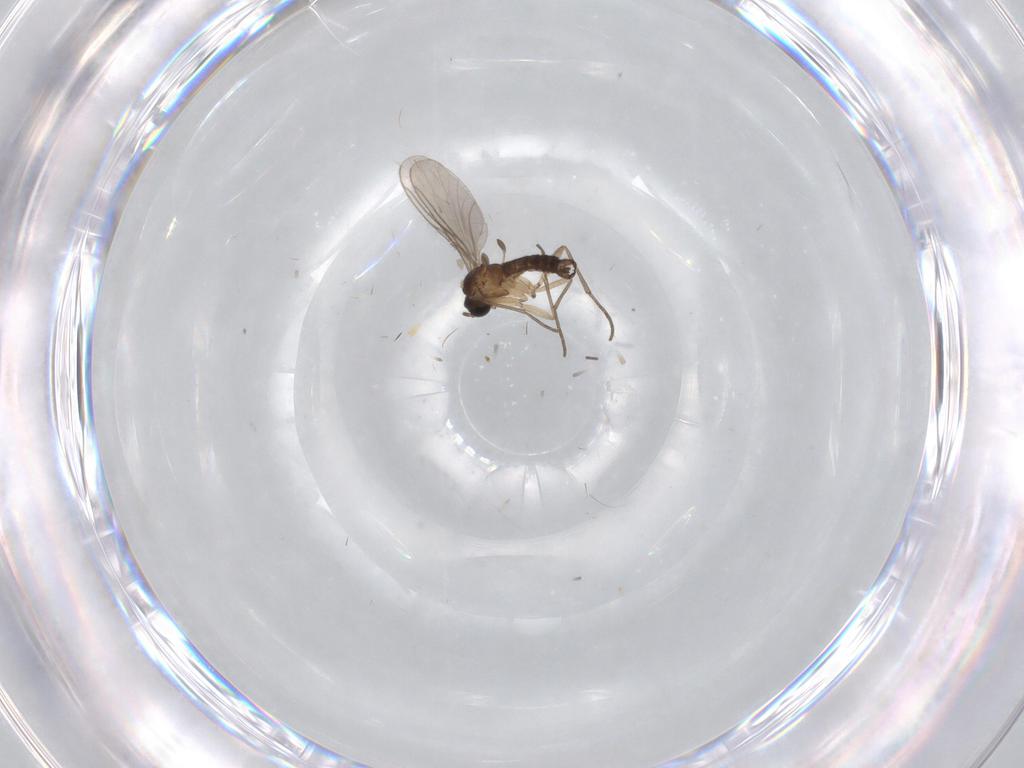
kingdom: Animalia
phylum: Arthropoda
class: Insecta
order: Diptera
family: Sciaridae
